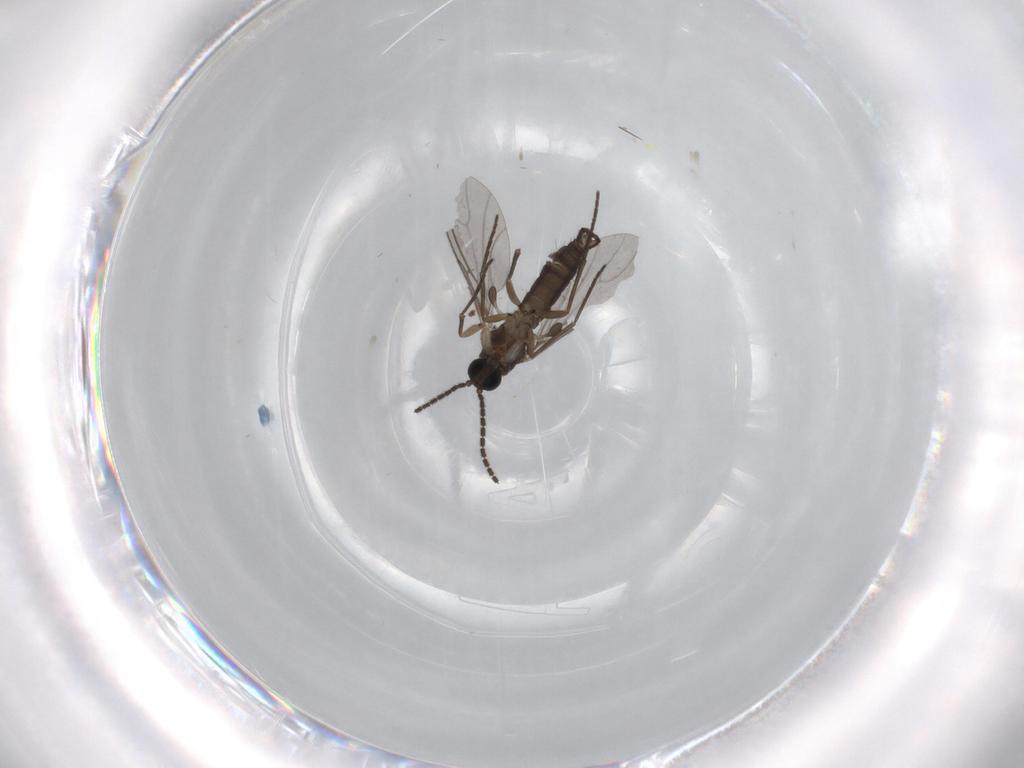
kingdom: Animalia
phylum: Arthropoda
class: Insecta
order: Diptera
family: Sciaridae
